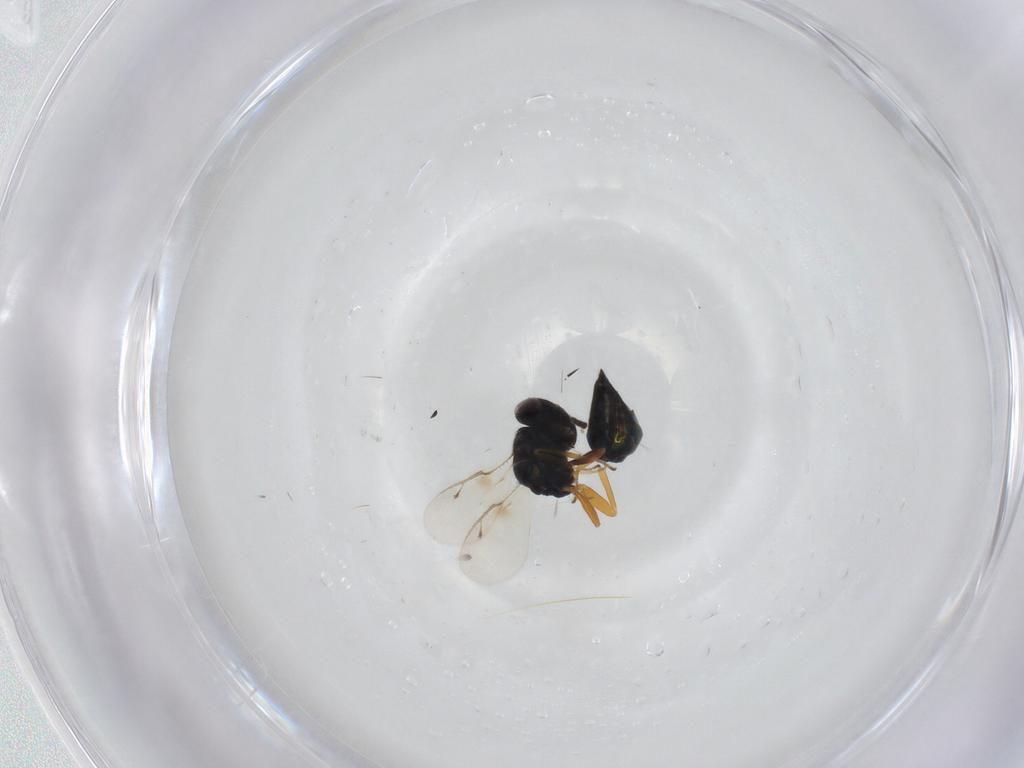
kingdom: Animalia
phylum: Arthropoda
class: Insecta
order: Hymenoptera
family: Pteromalidae
